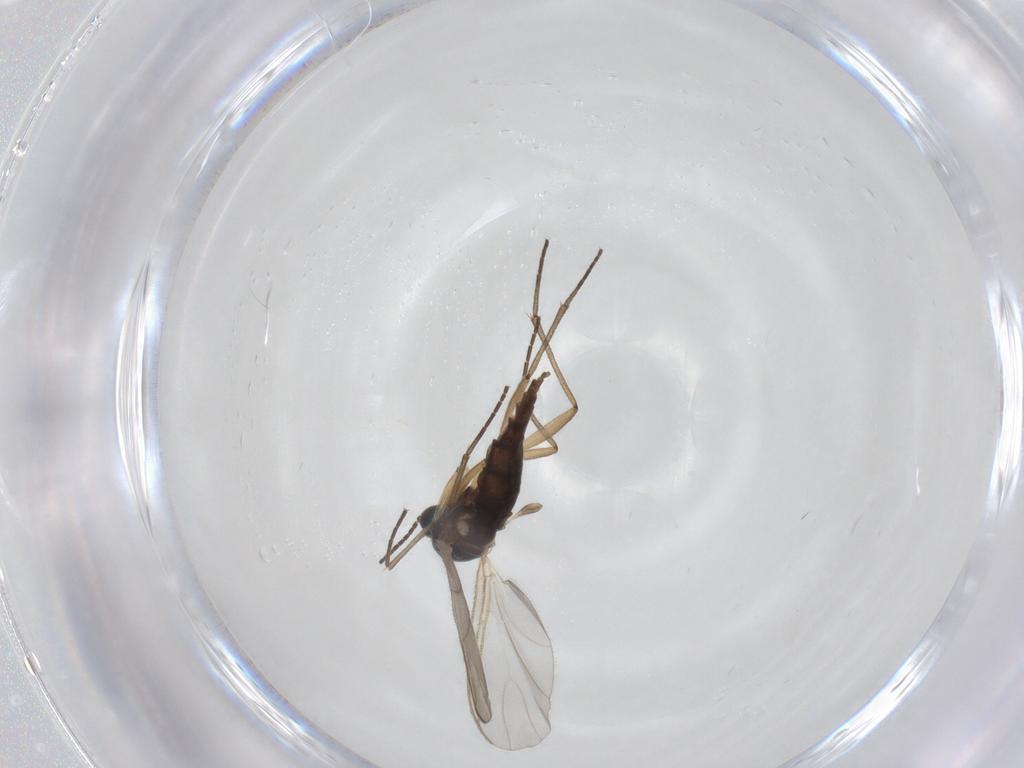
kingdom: Animalia
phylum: Arthropoda
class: Insecta
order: Diptera
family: Sciaridae
